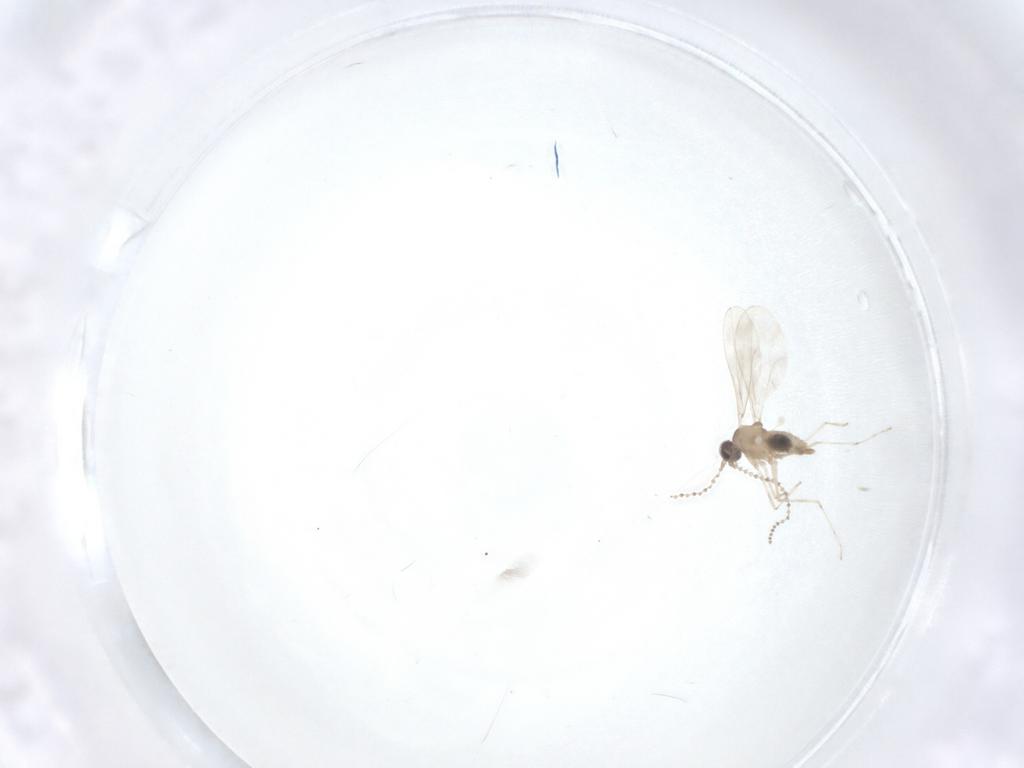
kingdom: Animalia
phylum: Arthropoda
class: Insecta
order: Diptera
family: Cecidomyiidae
